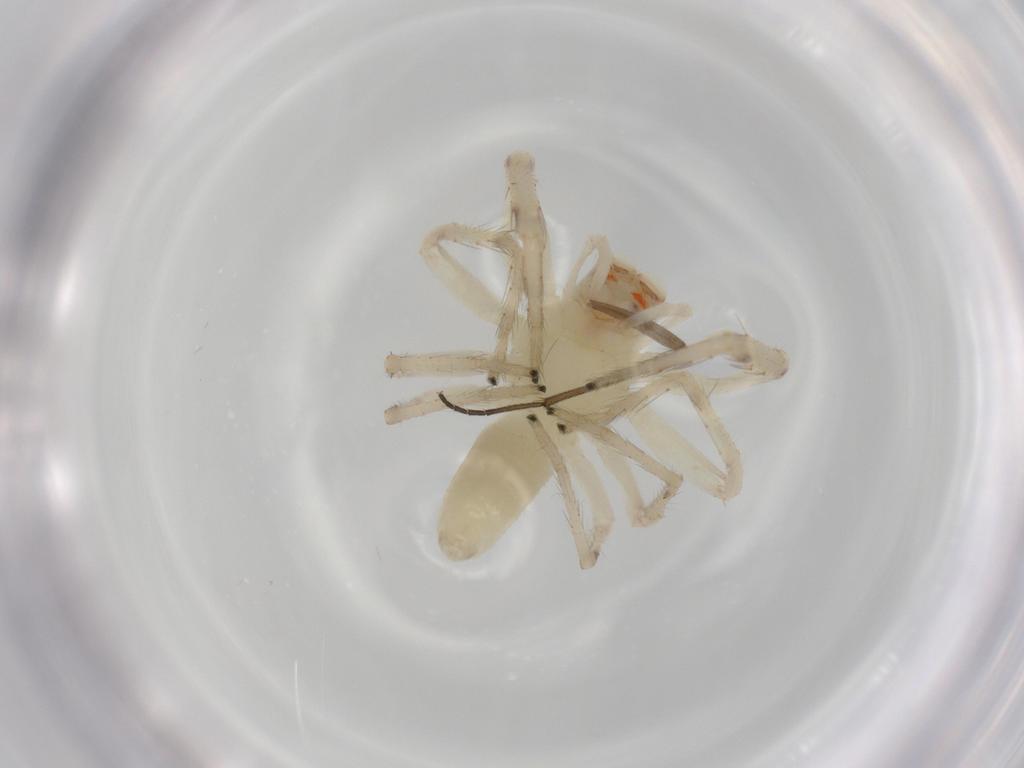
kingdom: Animalia
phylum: Arthropoda
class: Arachnida
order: Araneae
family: Salticidae
